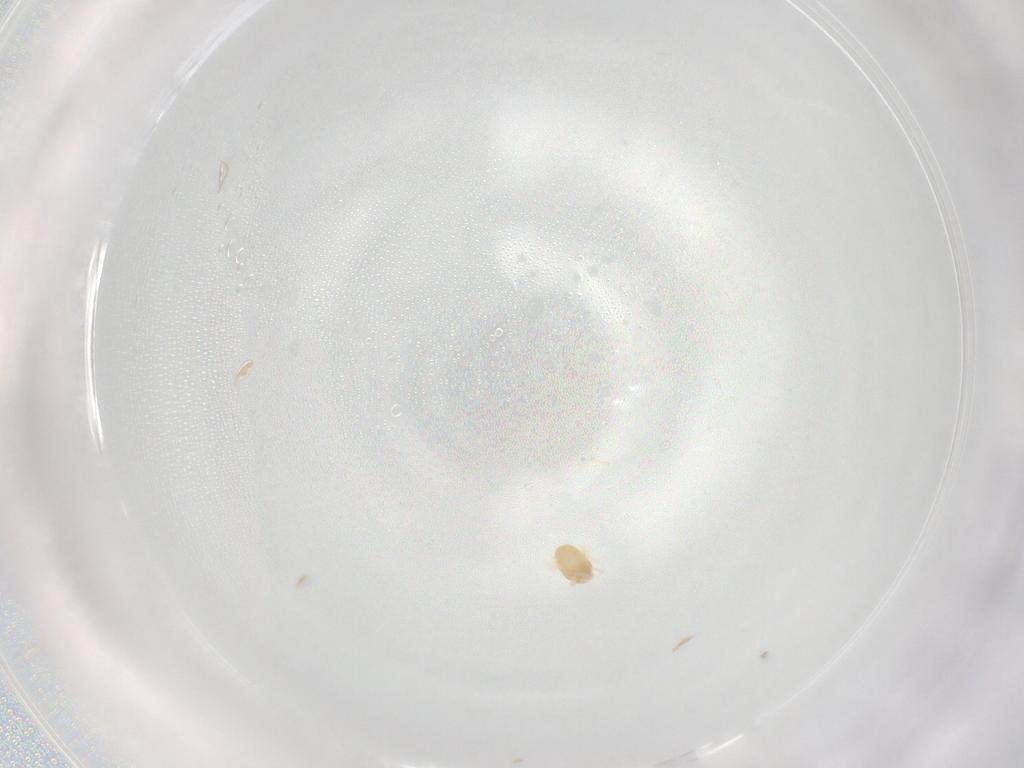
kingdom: Animalia
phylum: Arthropoda
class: Arachnida
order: Trombidiformes
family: Eupodidae
